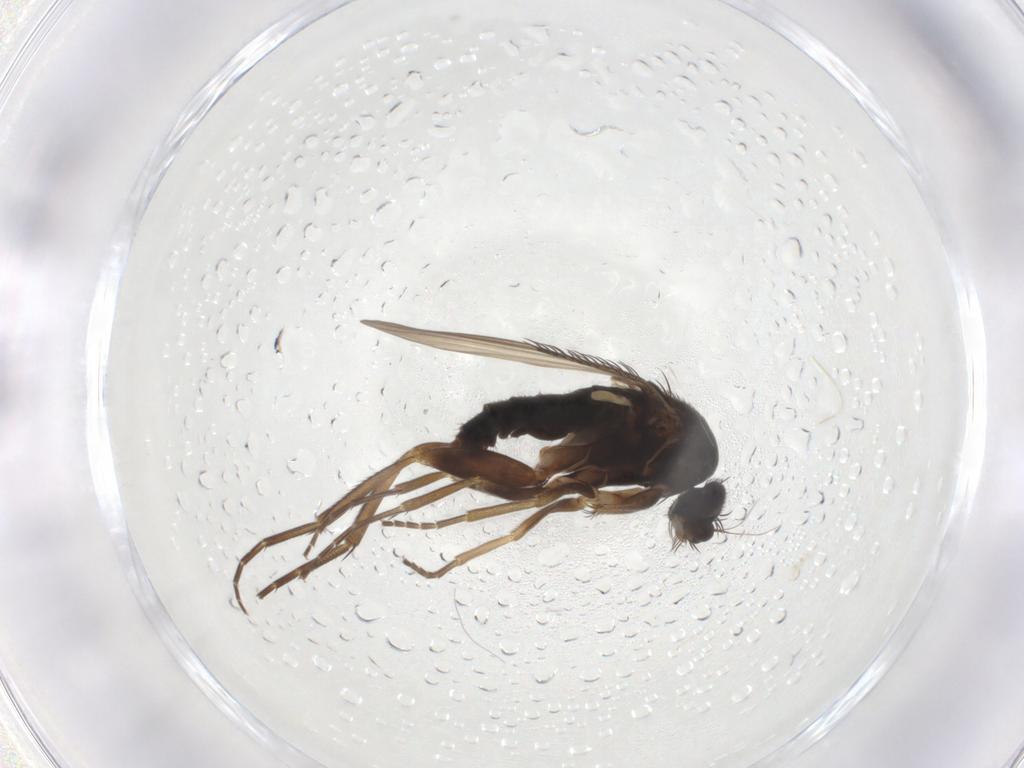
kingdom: Animalia
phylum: Arthropoda
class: Insecta
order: Diptera
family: Phoridae
